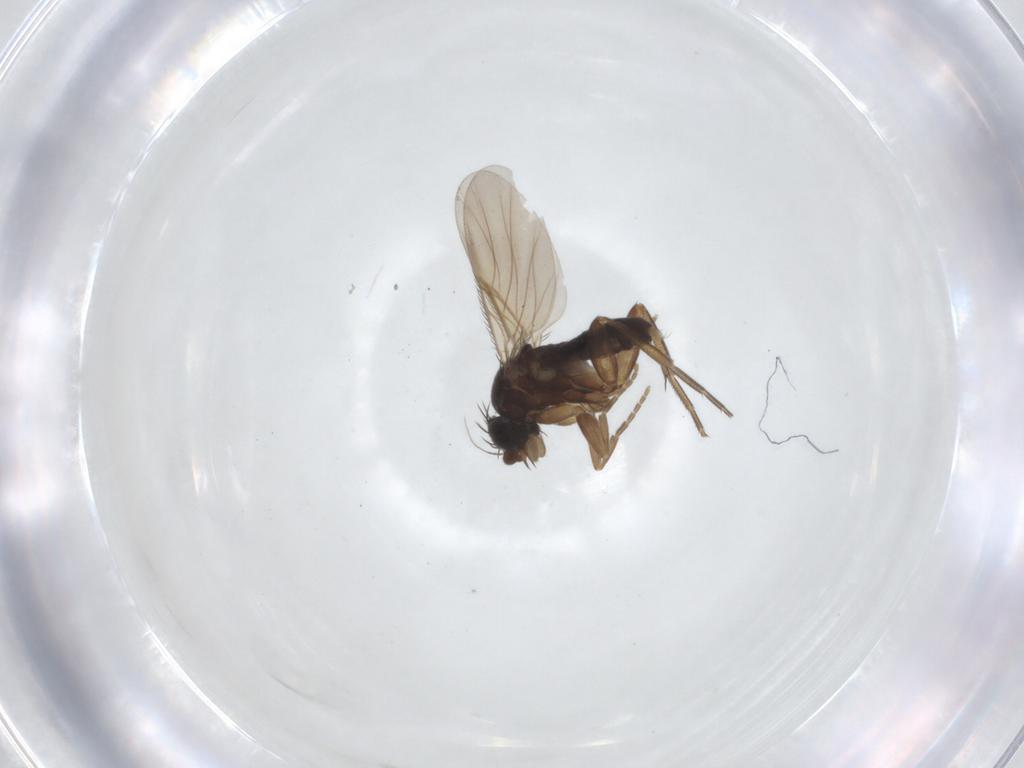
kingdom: Animalia
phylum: Arthropoda
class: Insecta
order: Diptera
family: Phoridae
